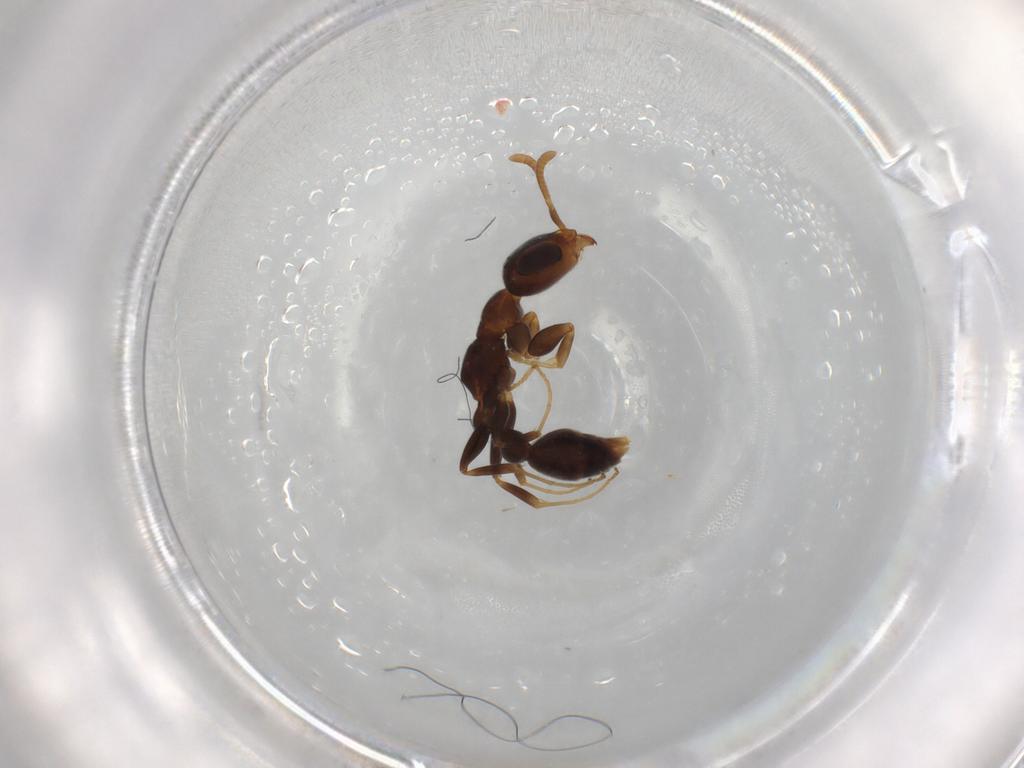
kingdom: Animalia
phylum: Arthropoda
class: Insecta
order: Hymenoptera
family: Formicidae
